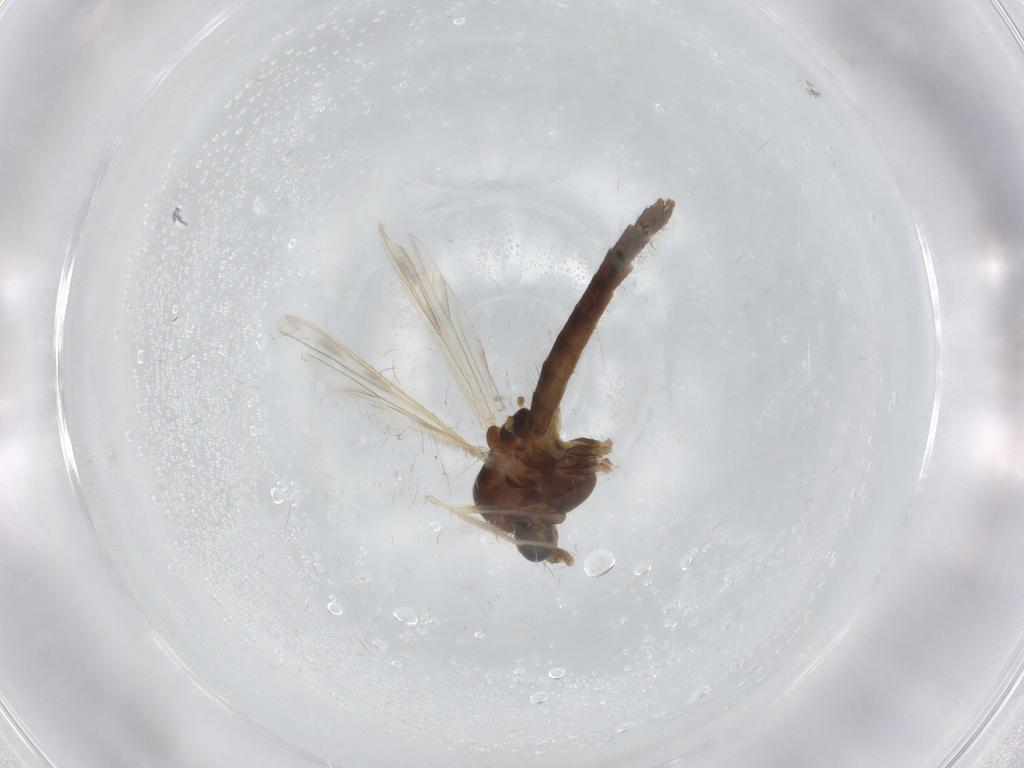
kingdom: Animalia
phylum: Arthropoda
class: Insecta
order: Diptera
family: Chironomidae
